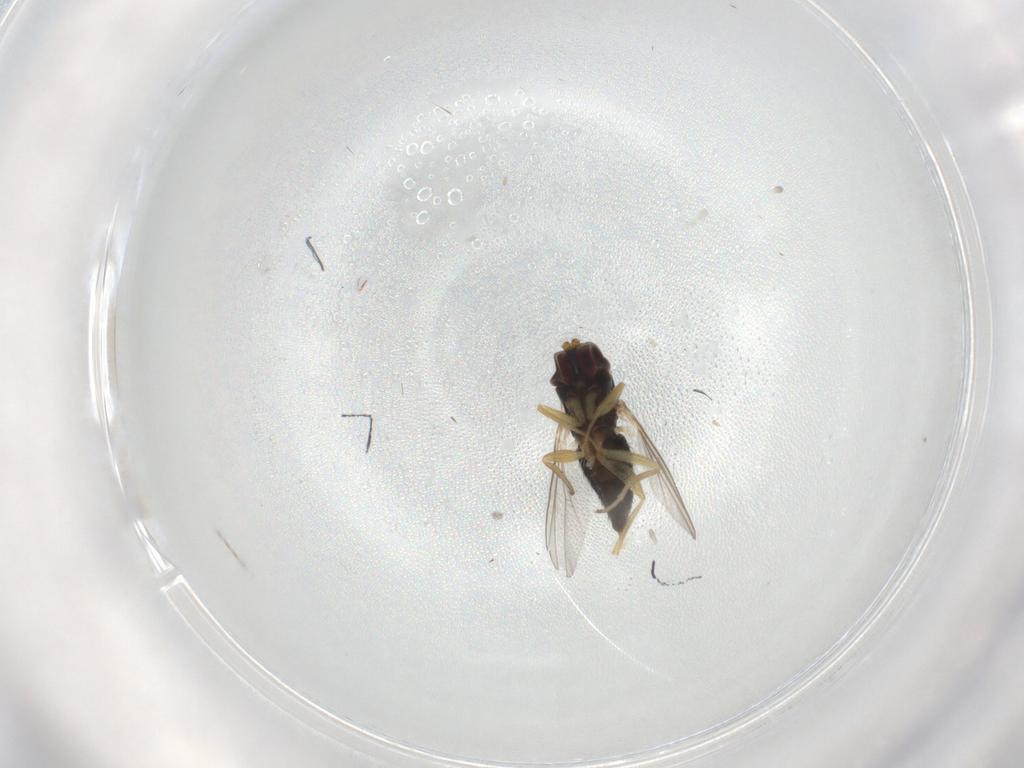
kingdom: Animalia
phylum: Arthropoda
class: Insecta
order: Diptera
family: Dolichopodidae
